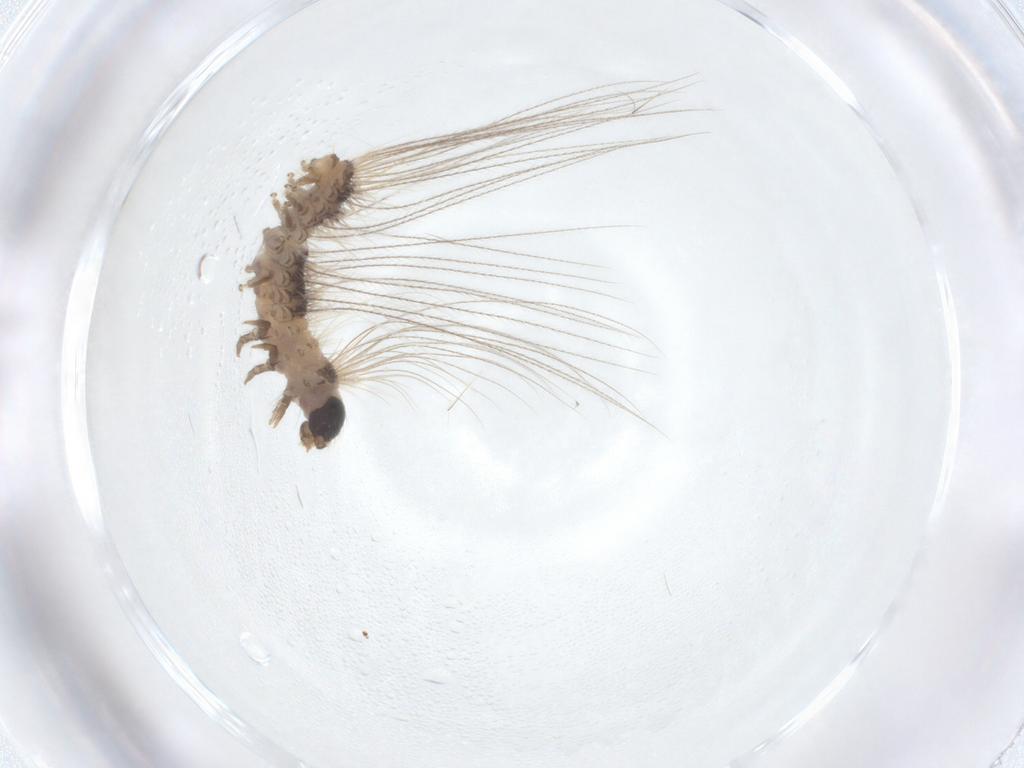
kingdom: Animalia
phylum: Arthropoda
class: Insecta
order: Lepidoptera
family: Erebidae
